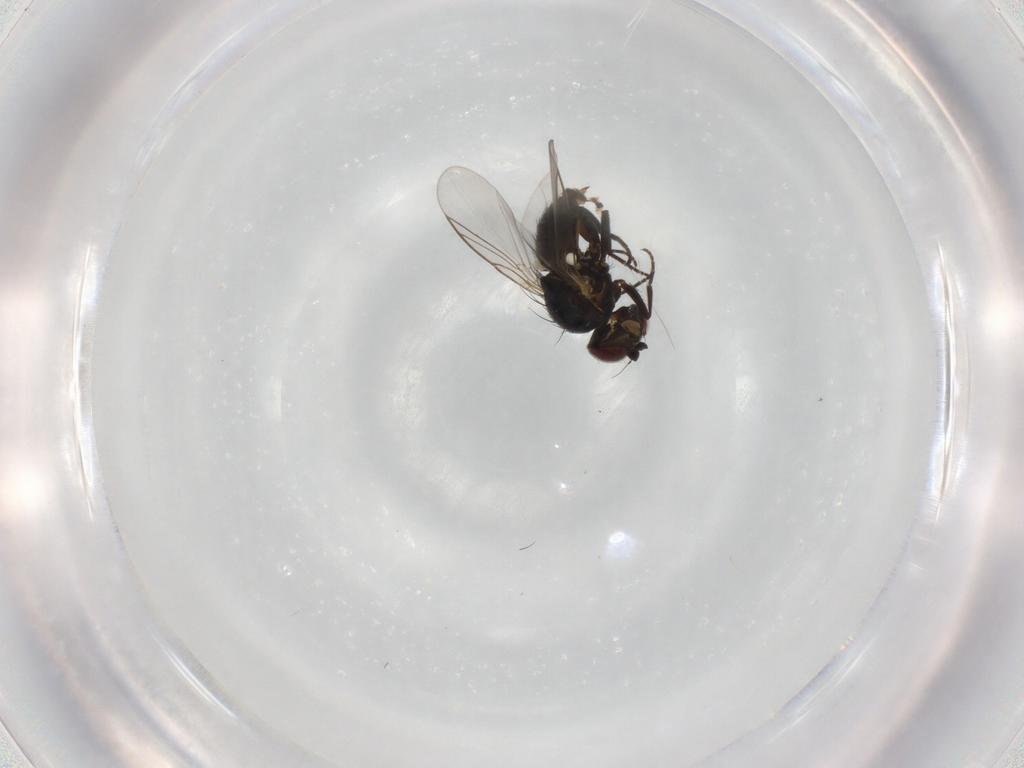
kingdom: Animalia
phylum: Arthropoda
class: Insecta
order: Diptera
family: Agromyzidae
